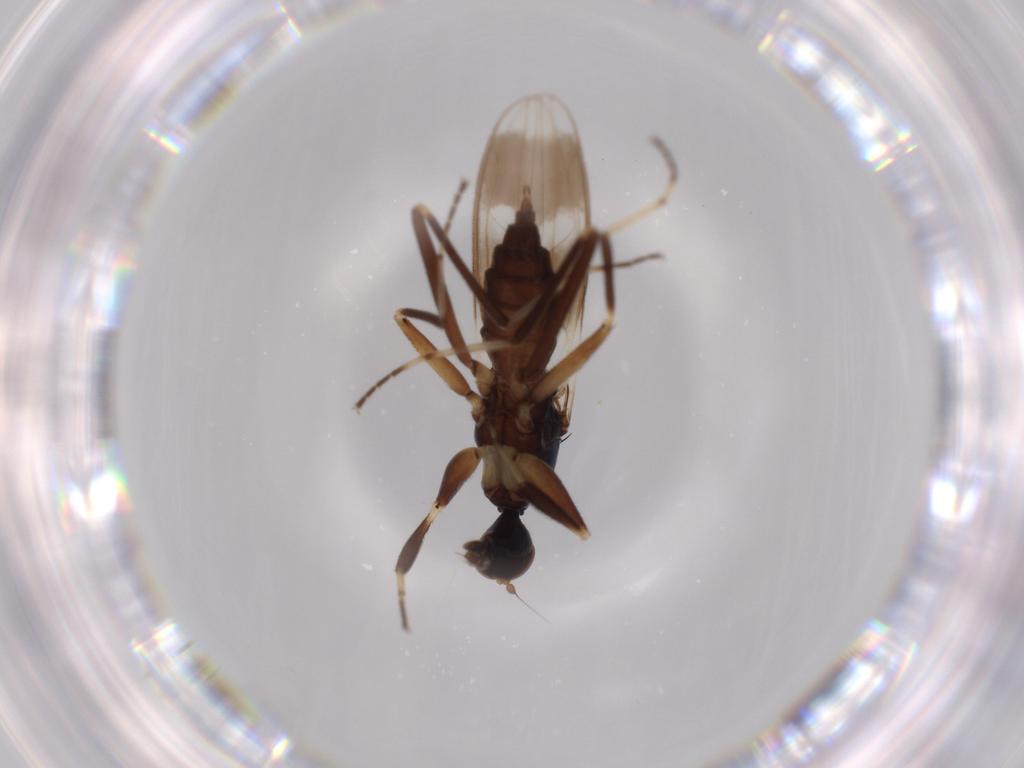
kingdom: Animalia
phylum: Arthropoda
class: Insecta
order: Diptera
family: Hybotidae
